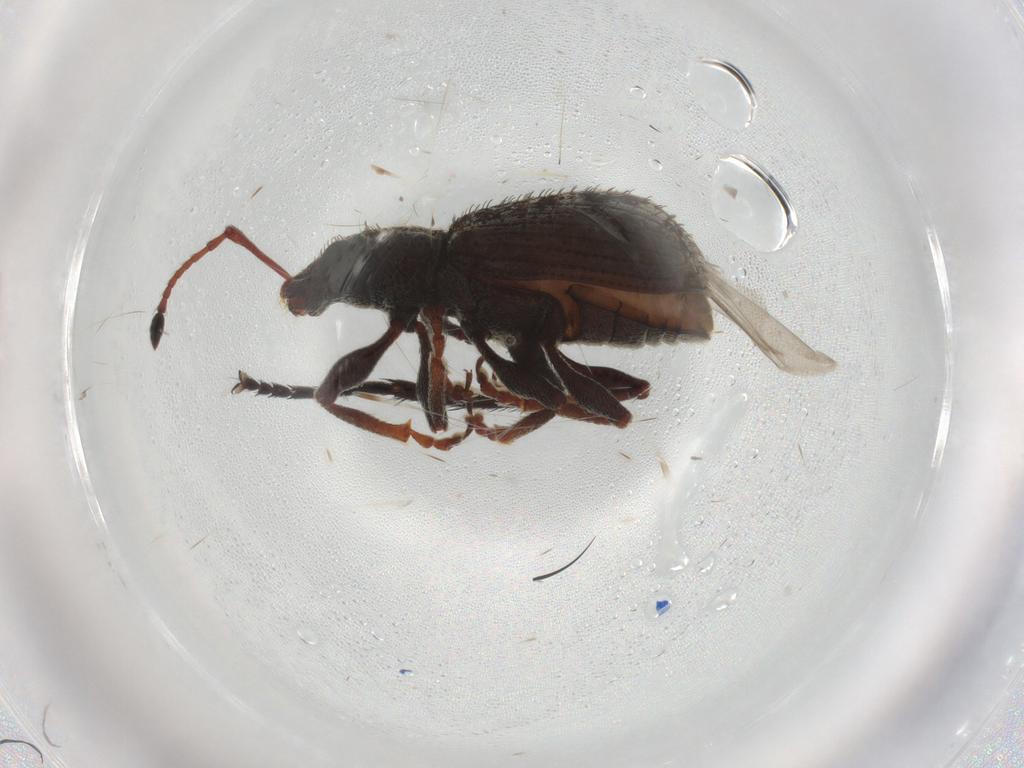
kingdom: Animalia
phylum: Arthropoda
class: Insecta
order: Coleoptera
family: Curculionidae
